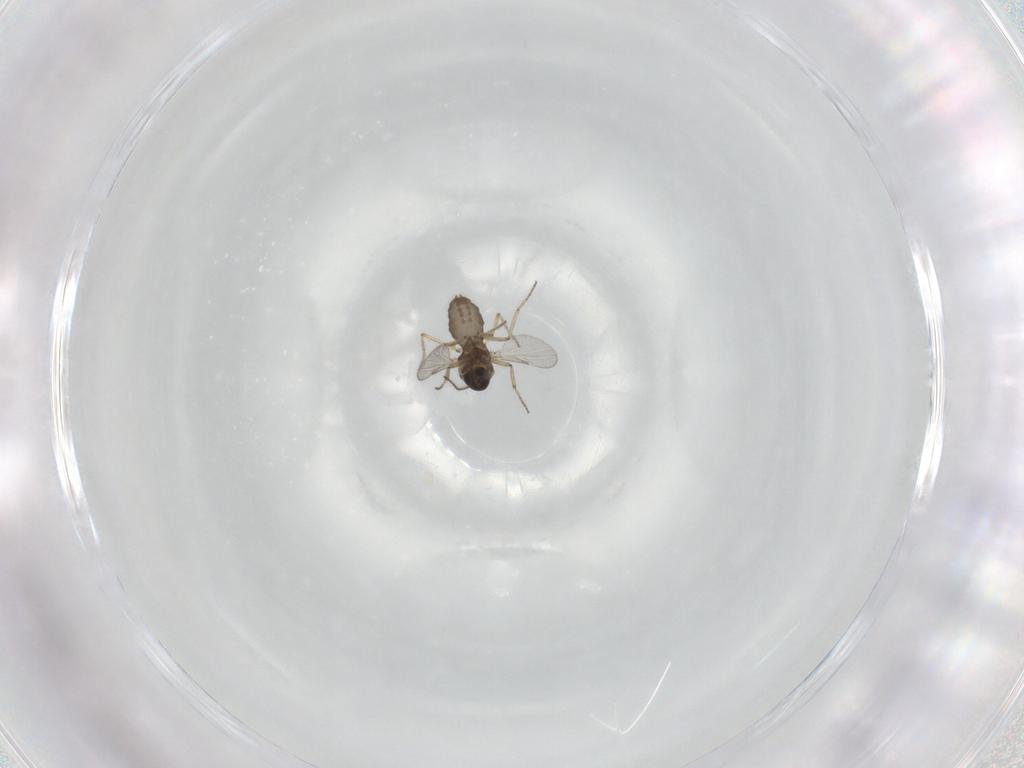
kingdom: Animalia
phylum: Arthropoda
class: Insecta
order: Diptera
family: Ceratopogonidae
